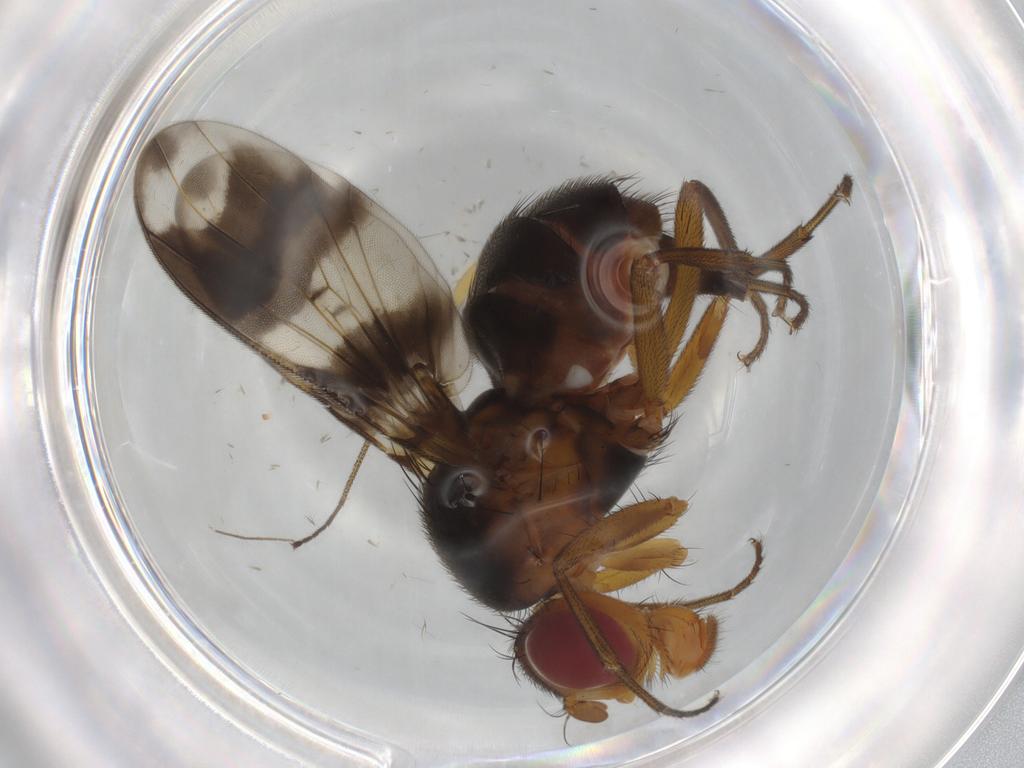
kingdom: Animalia
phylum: Arthropoda
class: Insecta
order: Diptera
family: Richardiidae
